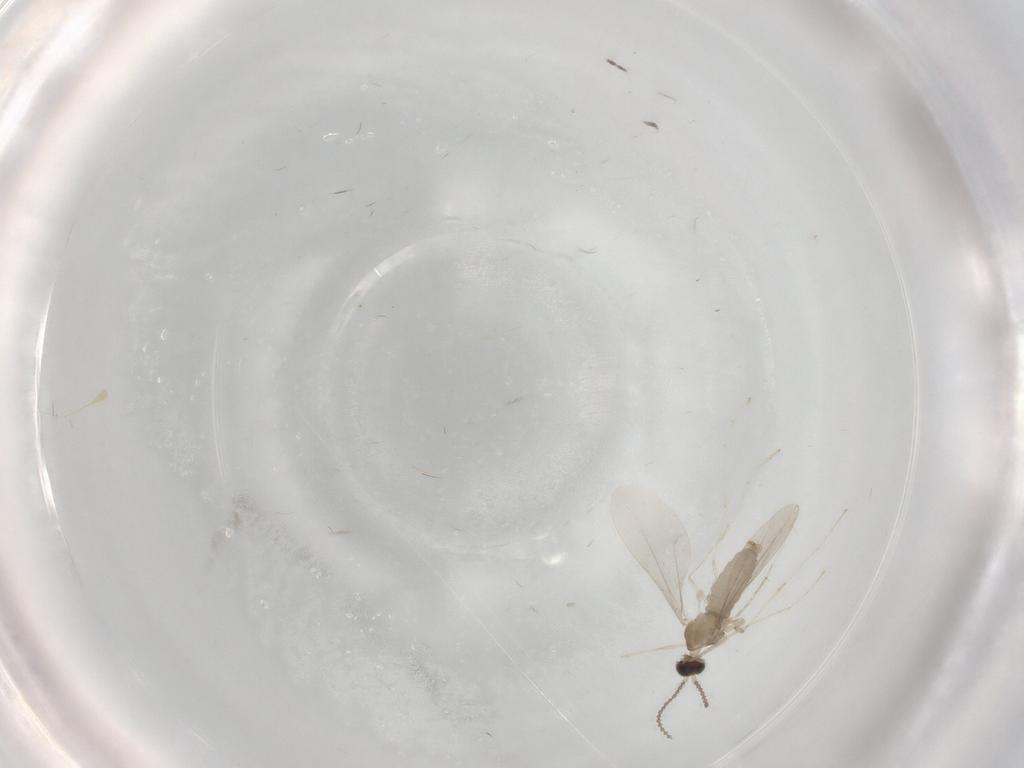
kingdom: Animalia
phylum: Arthropoda
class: Insecta
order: Diptera
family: Cecidomyiidae
